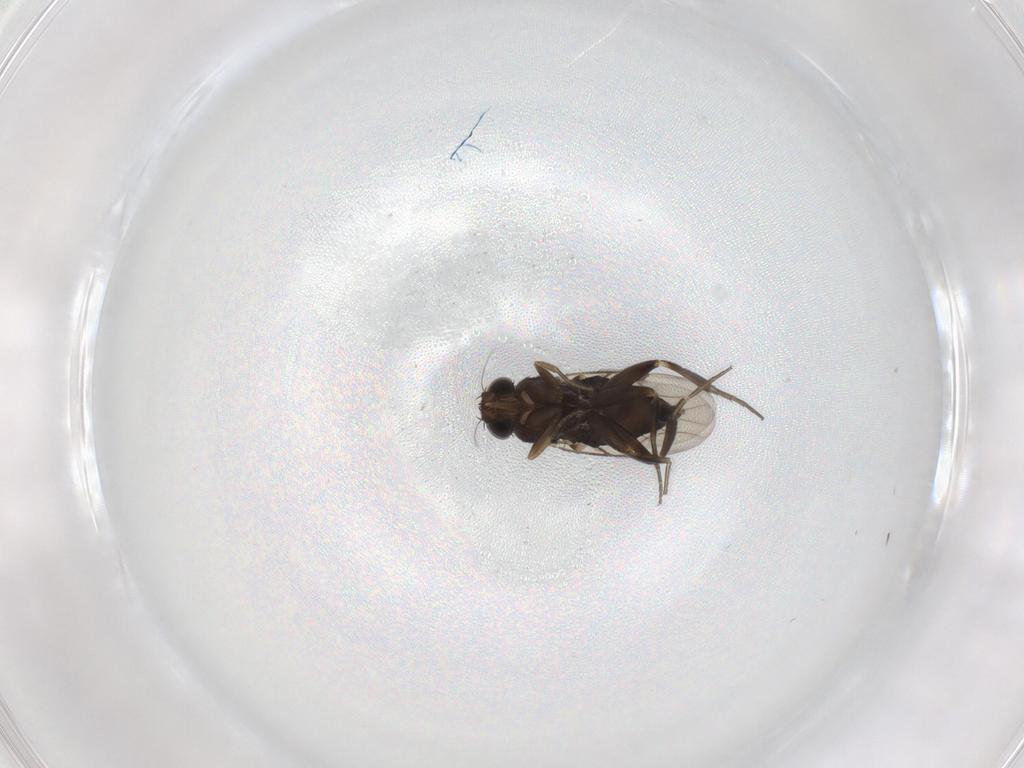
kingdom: Animalia
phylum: Arthropoda
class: Insecta
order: Diptera
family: Phoridae
